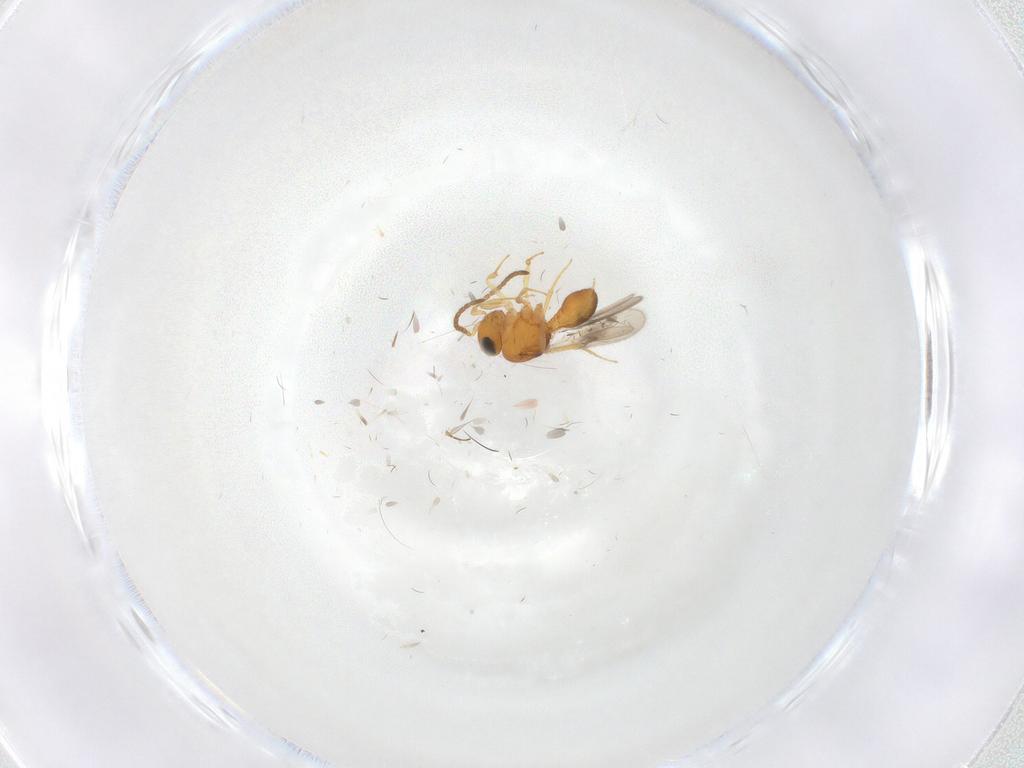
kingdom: Animalia
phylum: Arthropoda
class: Insecta
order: Hymenoptera
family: Scelionidae
